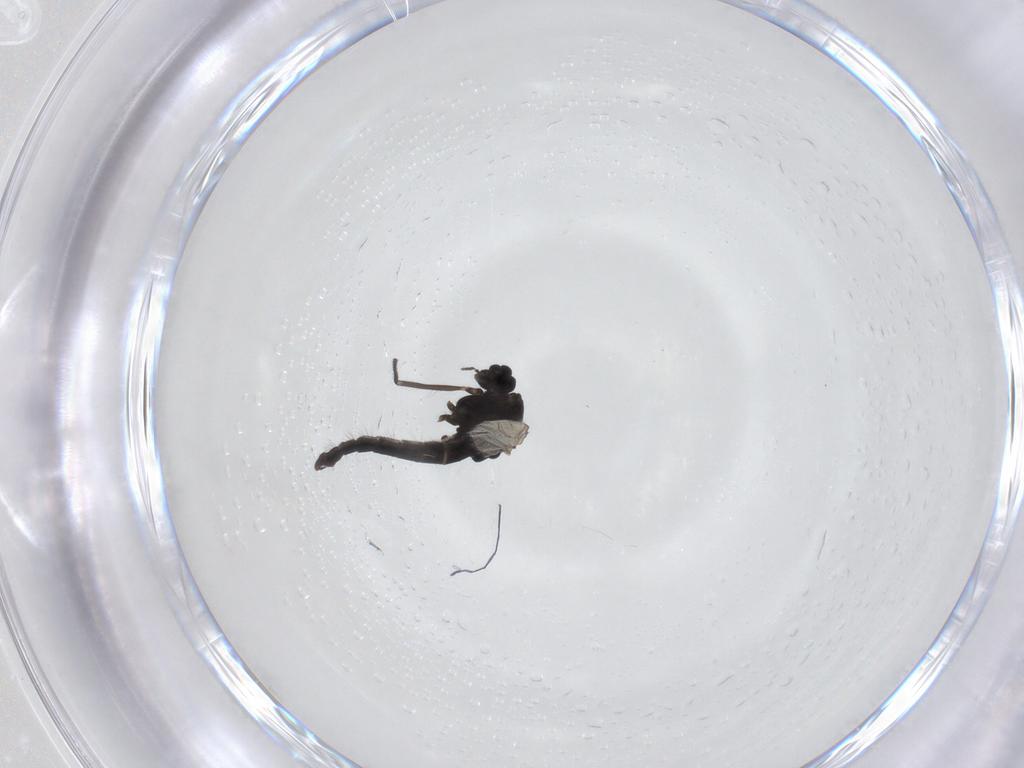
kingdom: Animalia
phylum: Arthropoda
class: Insecta
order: Diptera
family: Chironomidae
